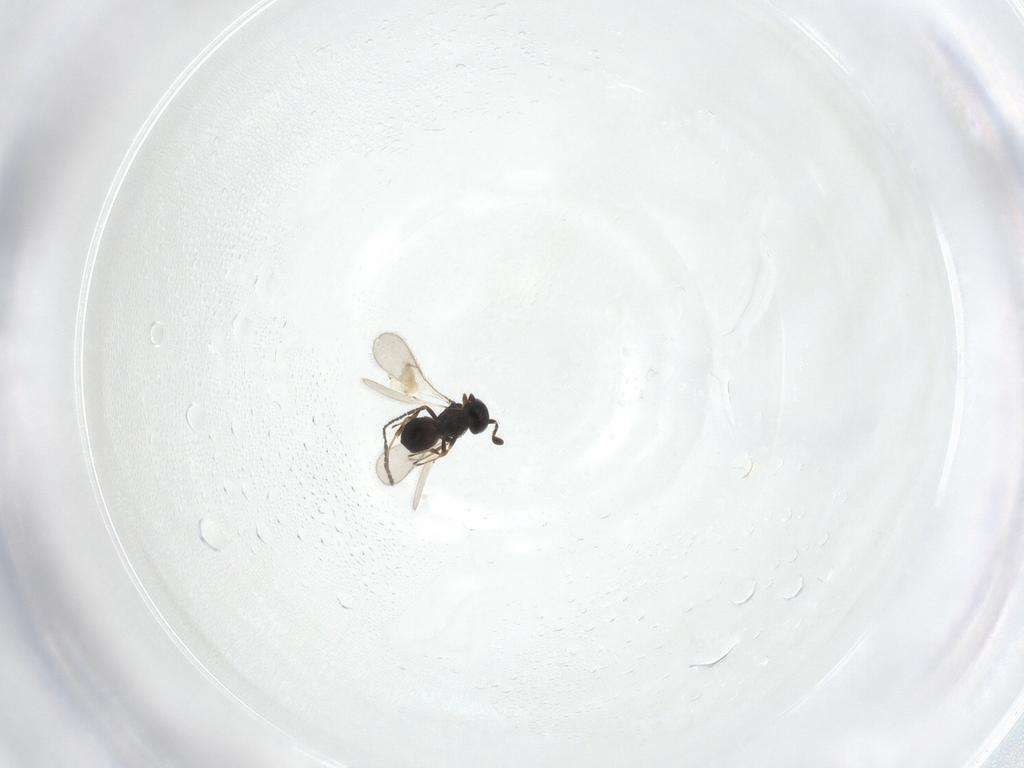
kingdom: Animalia
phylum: Arthropoda
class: Insecta
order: Hymenoptera
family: Scelionidae
